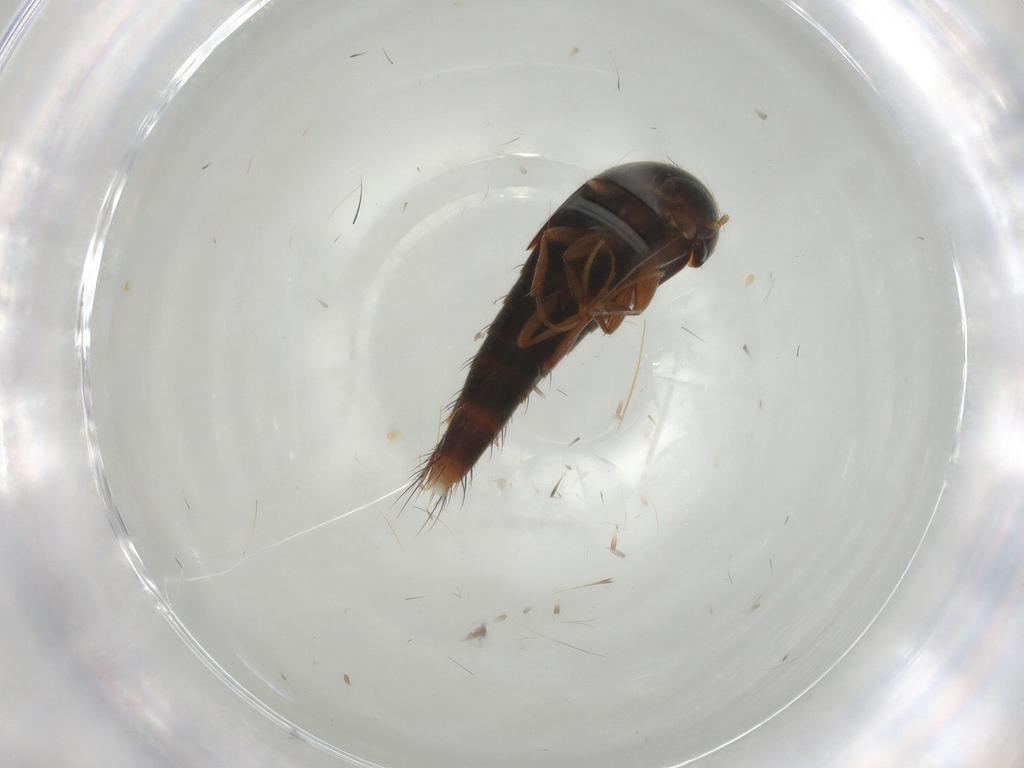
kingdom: Animalia
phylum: Arthropoda
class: Insecta
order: Coleoptera
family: Staphylinidae
